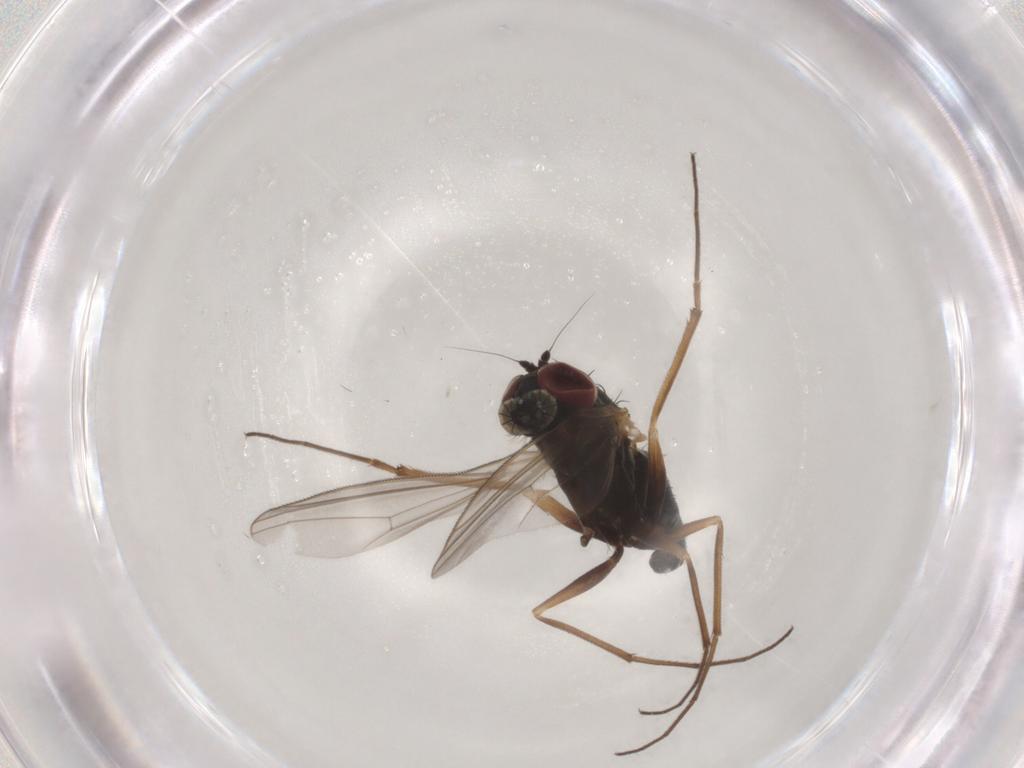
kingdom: Animalia
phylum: Arthropoda
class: Insecta
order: Diptera
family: Dolichopodidae
